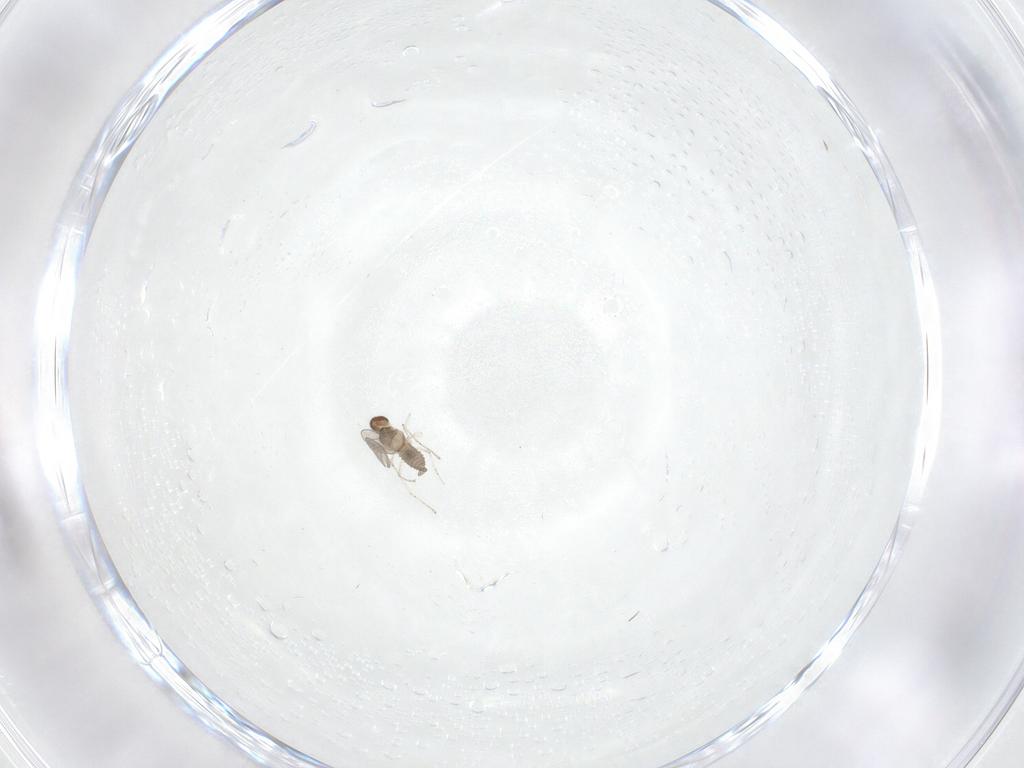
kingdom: Animalia
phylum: Arthropoda
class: Insecta
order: Diptera
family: Cecidomyiidae
